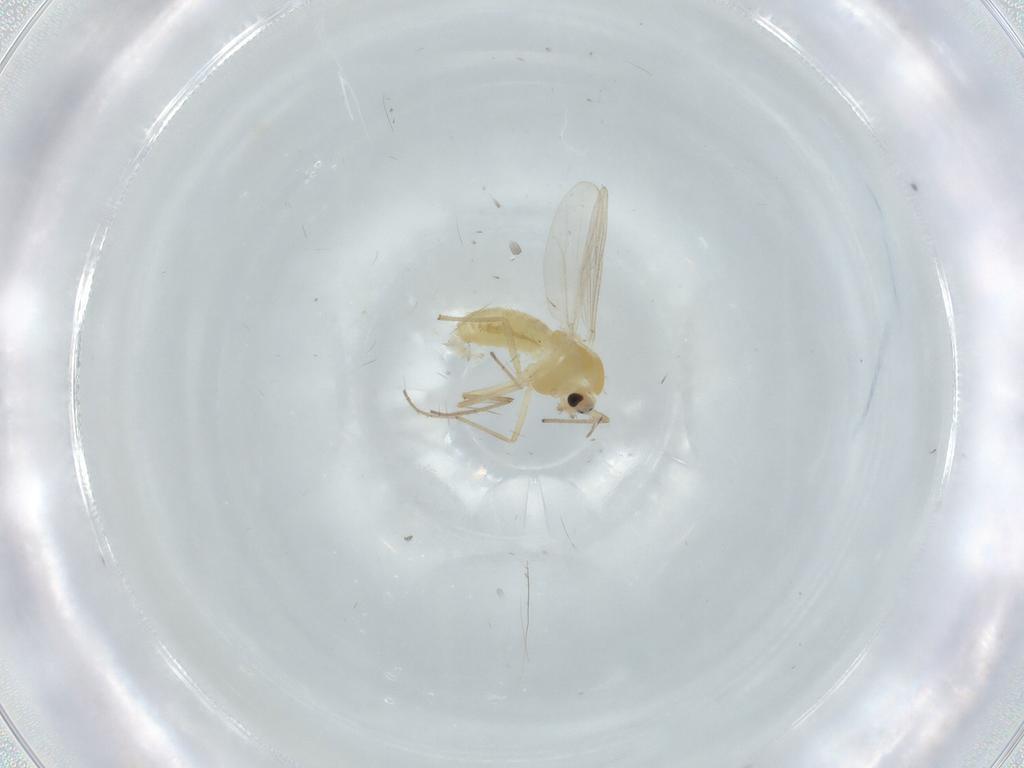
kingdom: Animalia
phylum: Arthropoda
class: Insecta
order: Diptera
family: Chironomidae
